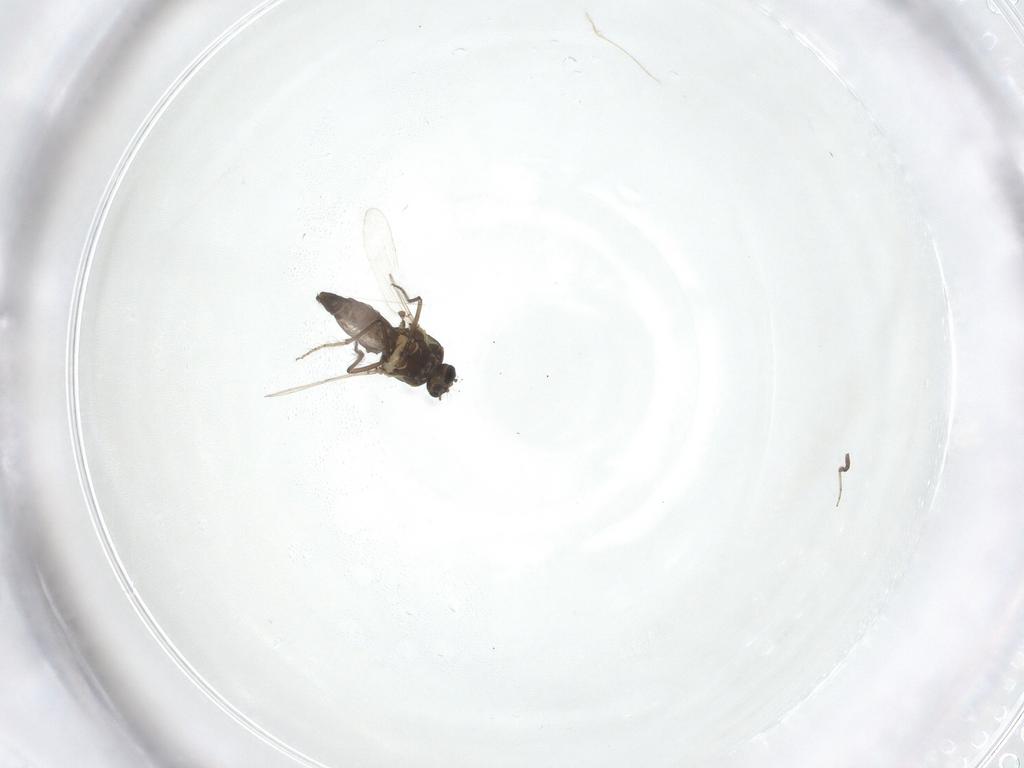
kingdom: Animalia
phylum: Arthropoda
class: Insecta
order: Diptera
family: Ceratopogonidae
